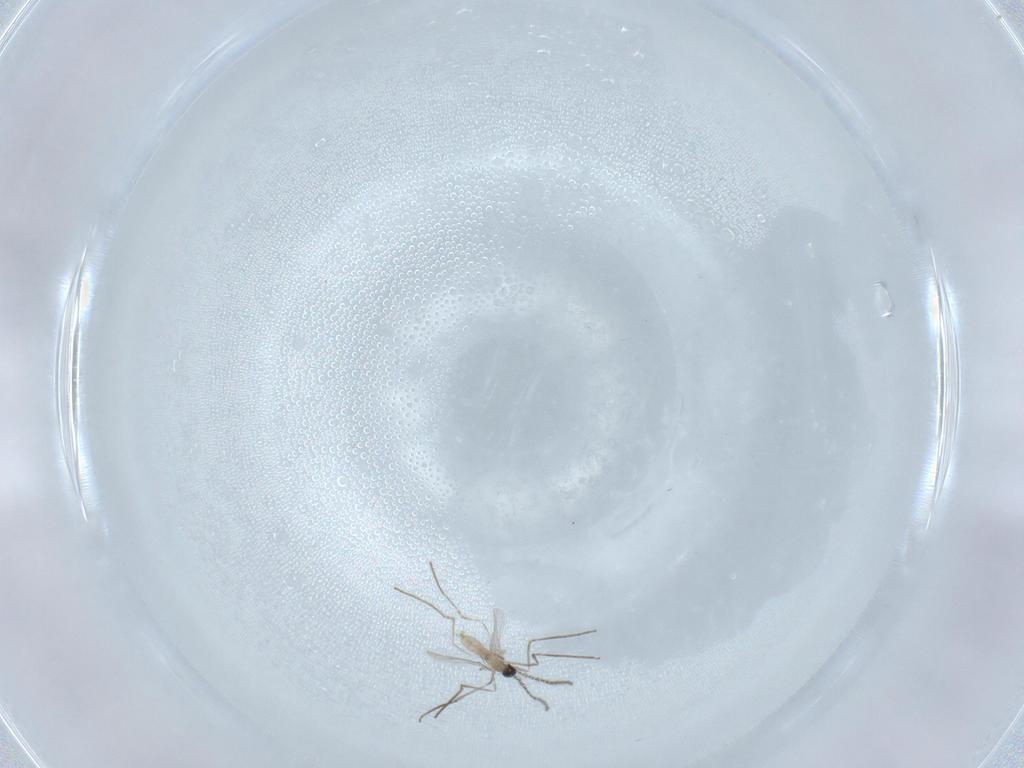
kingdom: Animalia
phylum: Arthropoda
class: Insecta
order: Diptera
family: Cecidomyiidae
